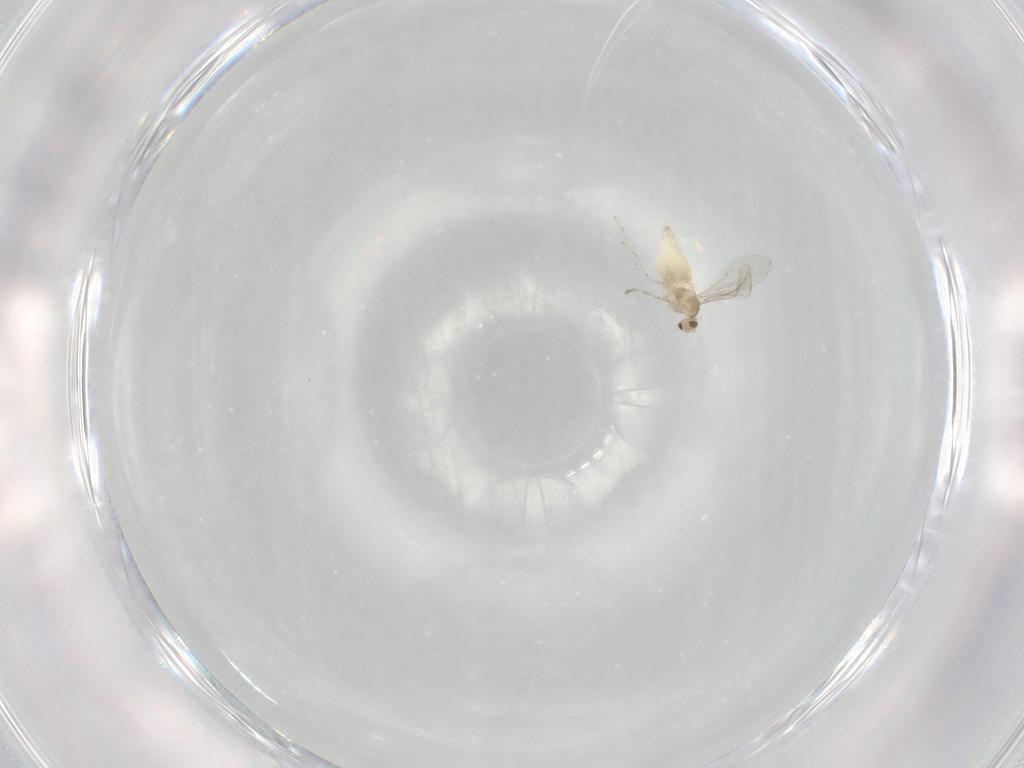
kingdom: Animalia
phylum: Arthropoda
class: Insecta
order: Diptera
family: Cecidomyiidae
